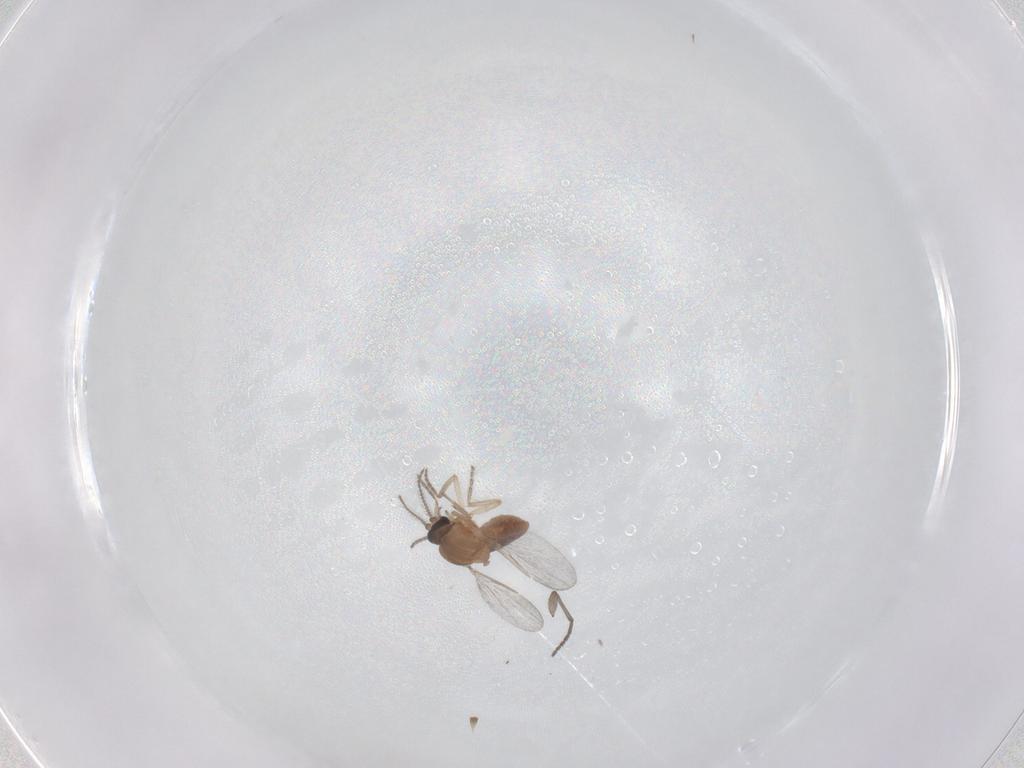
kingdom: Animalia
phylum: Arthropoda
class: Insecta
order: Diptera
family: Ceratopogonidae
